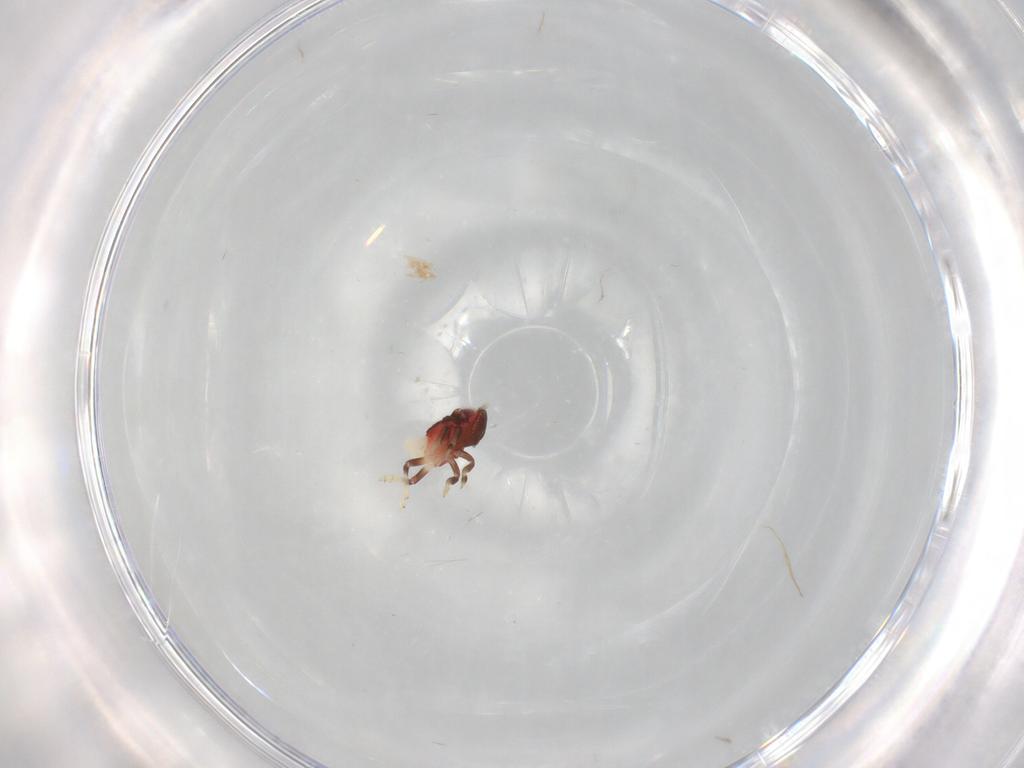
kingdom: Animalia
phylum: Arthropoda
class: Insecta
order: Hemiptera
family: Nogodinidae
